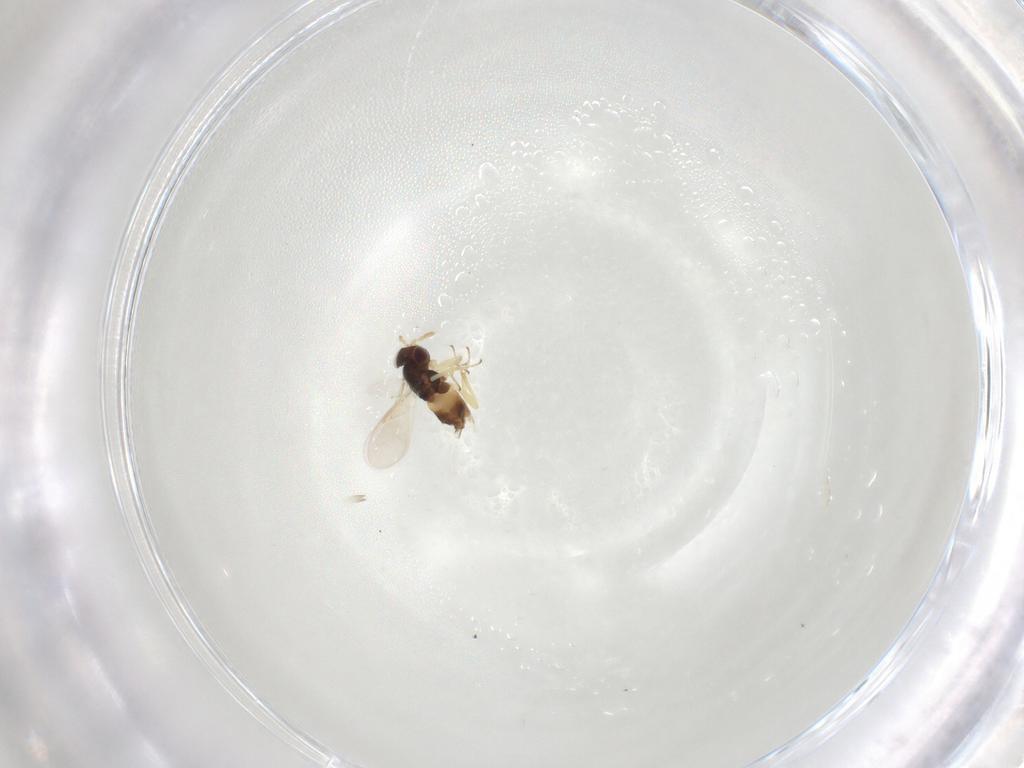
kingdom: Animalia
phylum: Arthropoda
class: Insecta
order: Hymenoptera
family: Aphelinidae
